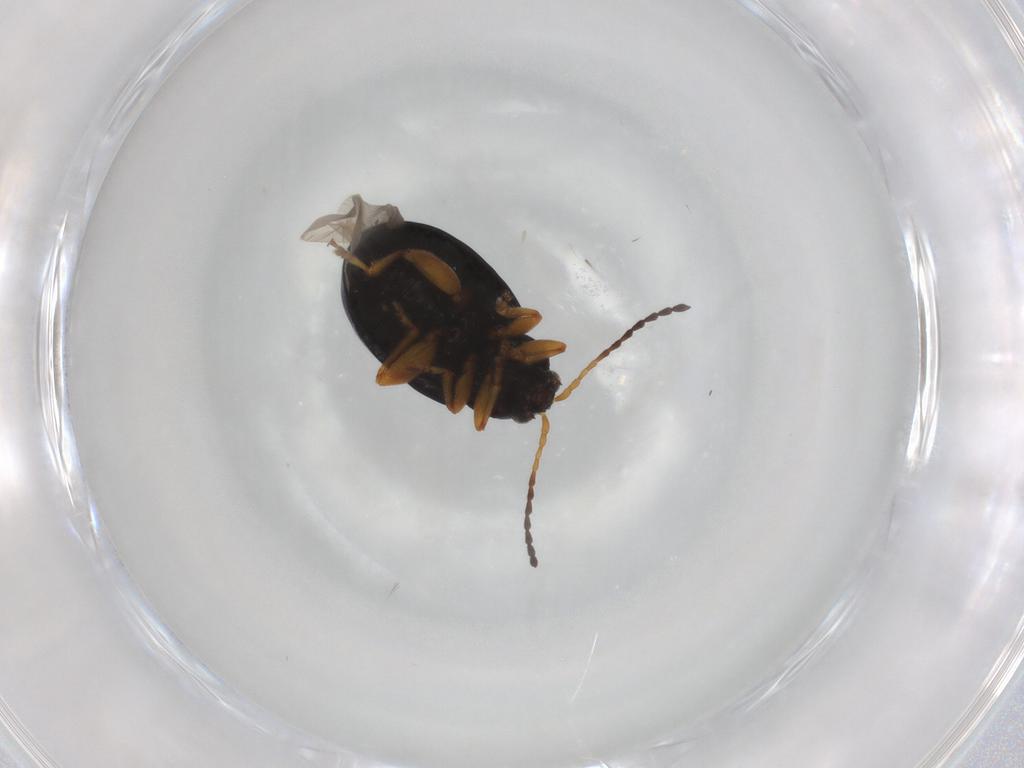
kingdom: Animalia
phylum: Arthropoda
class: Insecta
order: Coleoptera
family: Chrysomelidae
